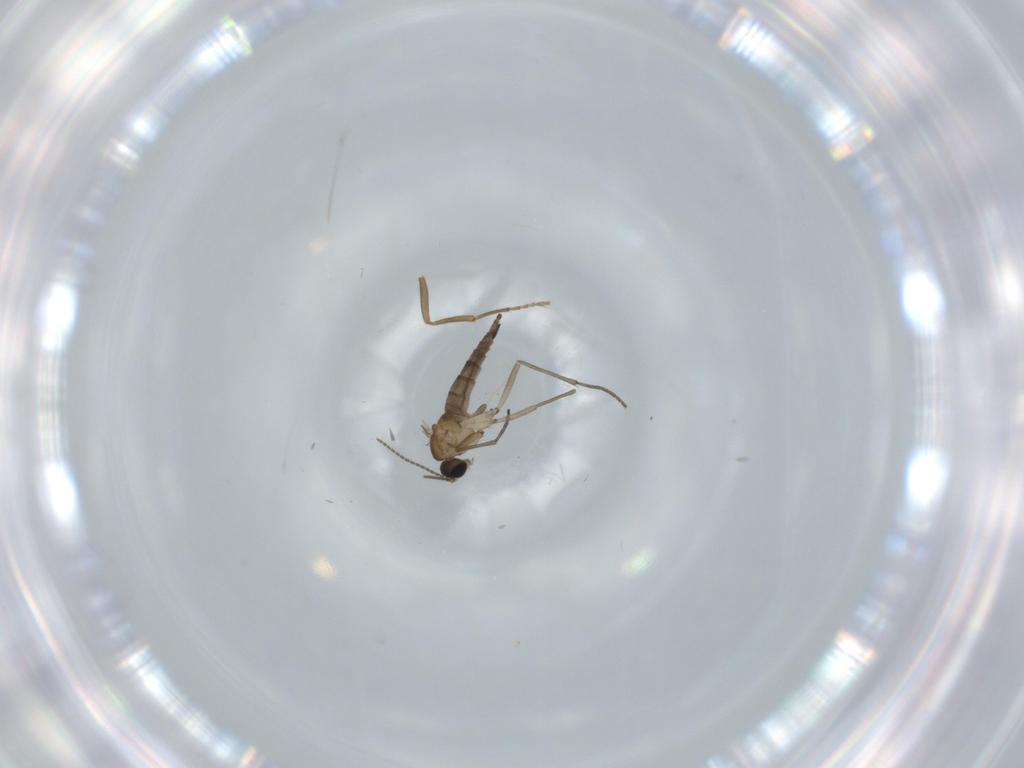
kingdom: Animalia
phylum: Arthropoda
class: Insecta
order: Diptera
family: Sciaridae
